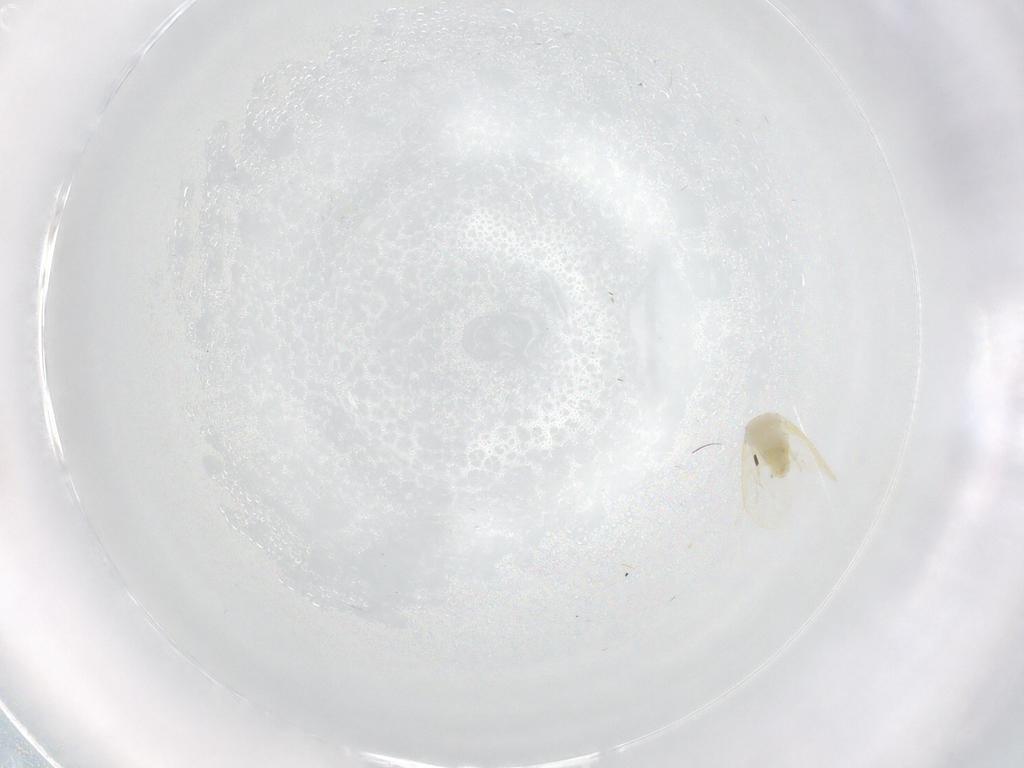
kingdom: Animalia
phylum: Arthropoda
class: Insecta
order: Hemiptera
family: Aleyrodidae
